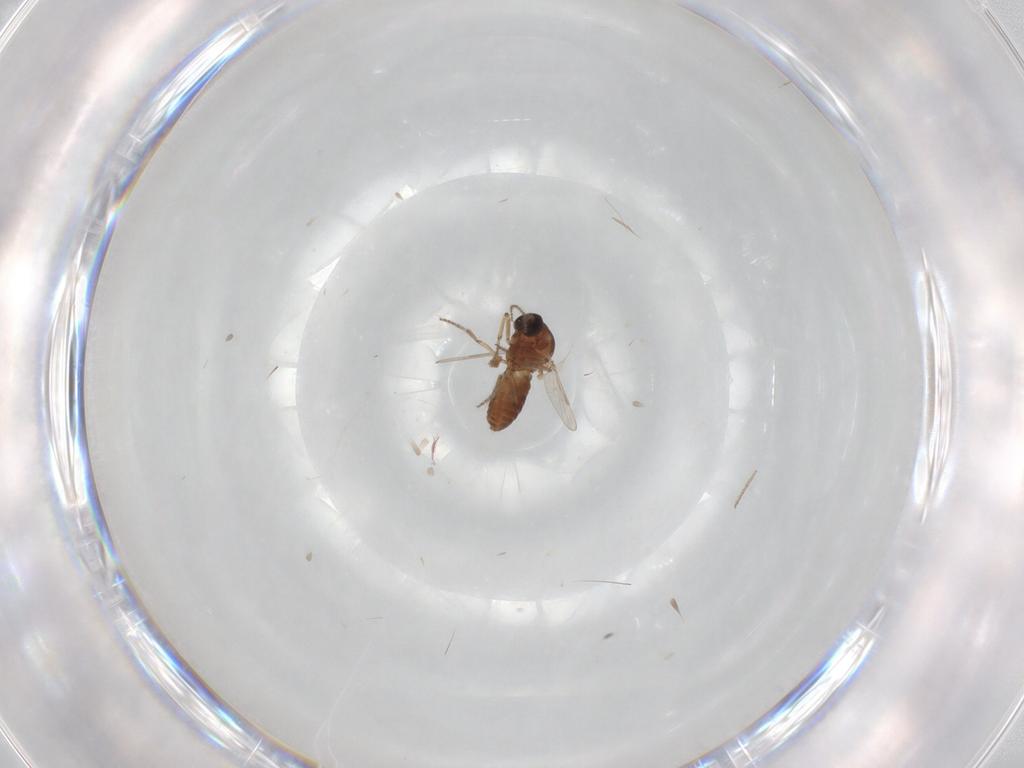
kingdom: Animalia
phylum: Arthropoda
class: Insecta
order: Diptera
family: Ceratopogonidae
